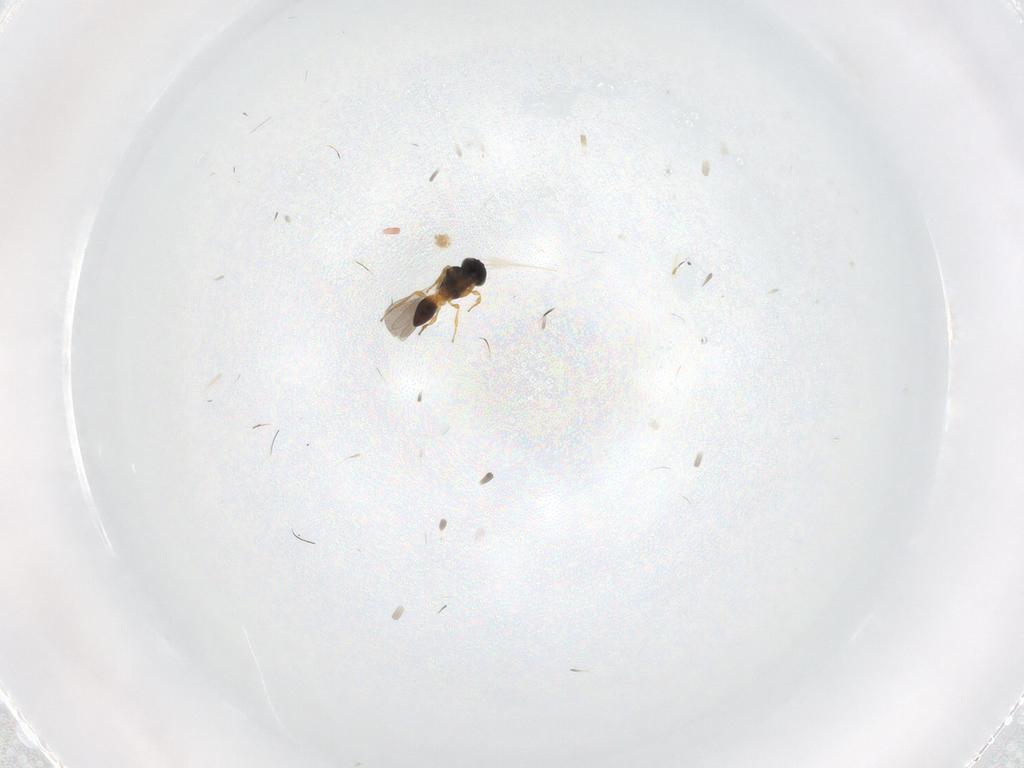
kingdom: Animalia
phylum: Arthropoda
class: Insecta
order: Hymenoptera
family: Platygastridae
